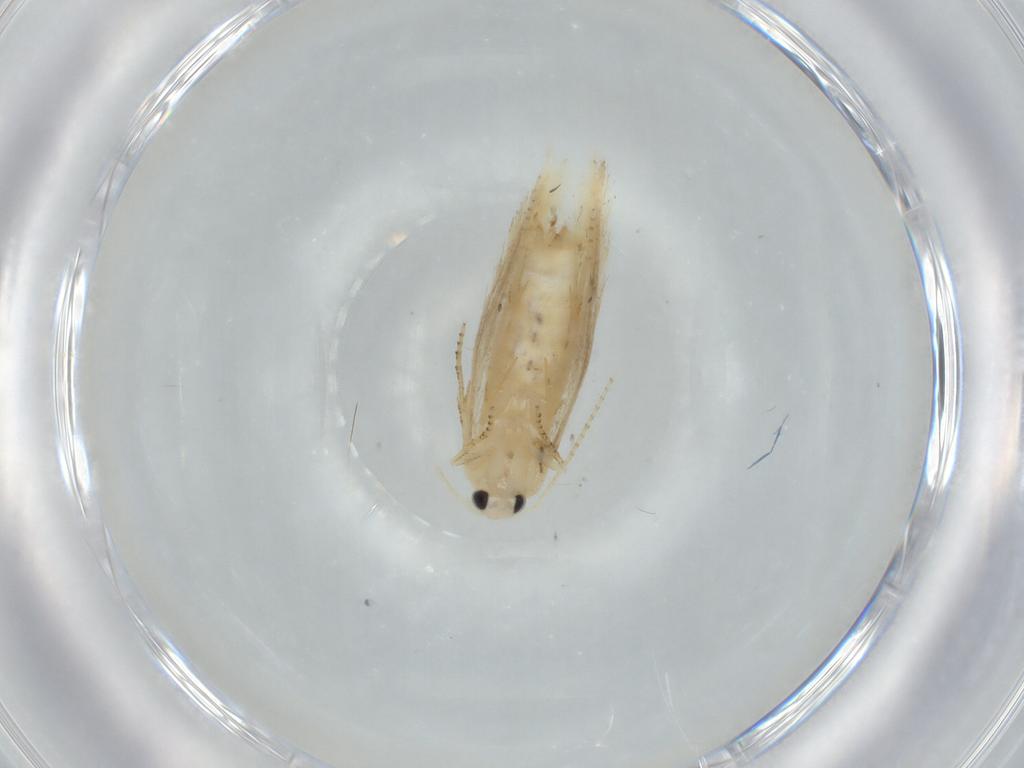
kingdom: Animalia
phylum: Arthropoda
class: Insecta
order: Lepidoptera
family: Bucculatricidae
